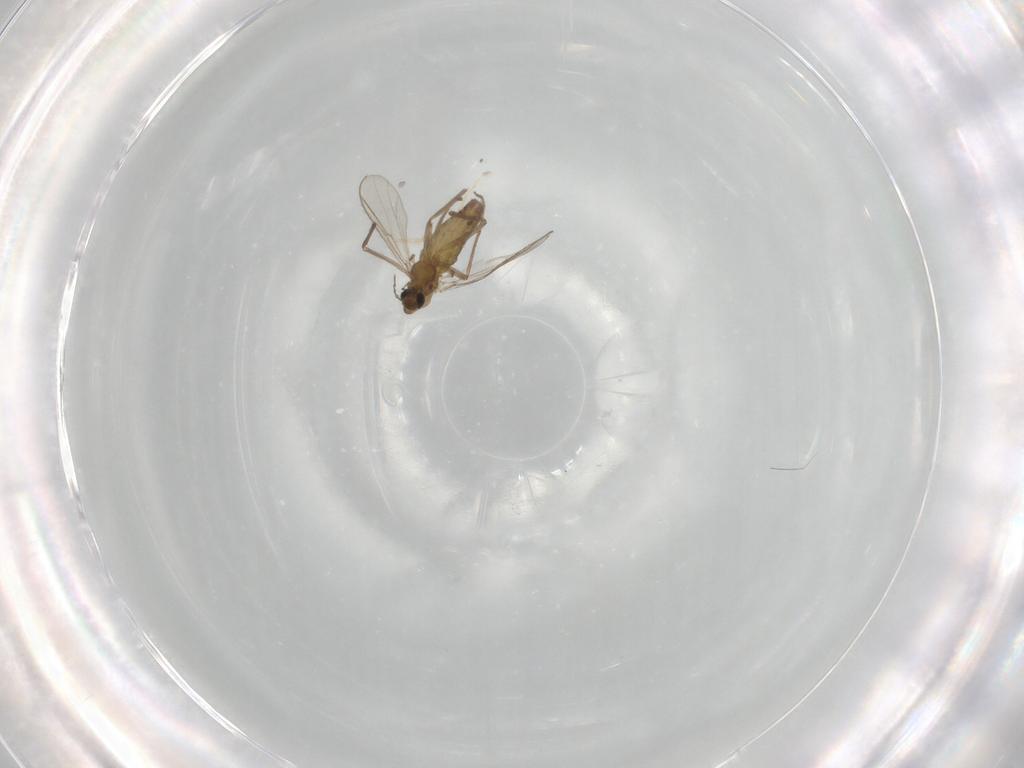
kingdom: Animalia
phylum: Arthropoda
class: Insecta
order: Diptera
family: Chironomidae
